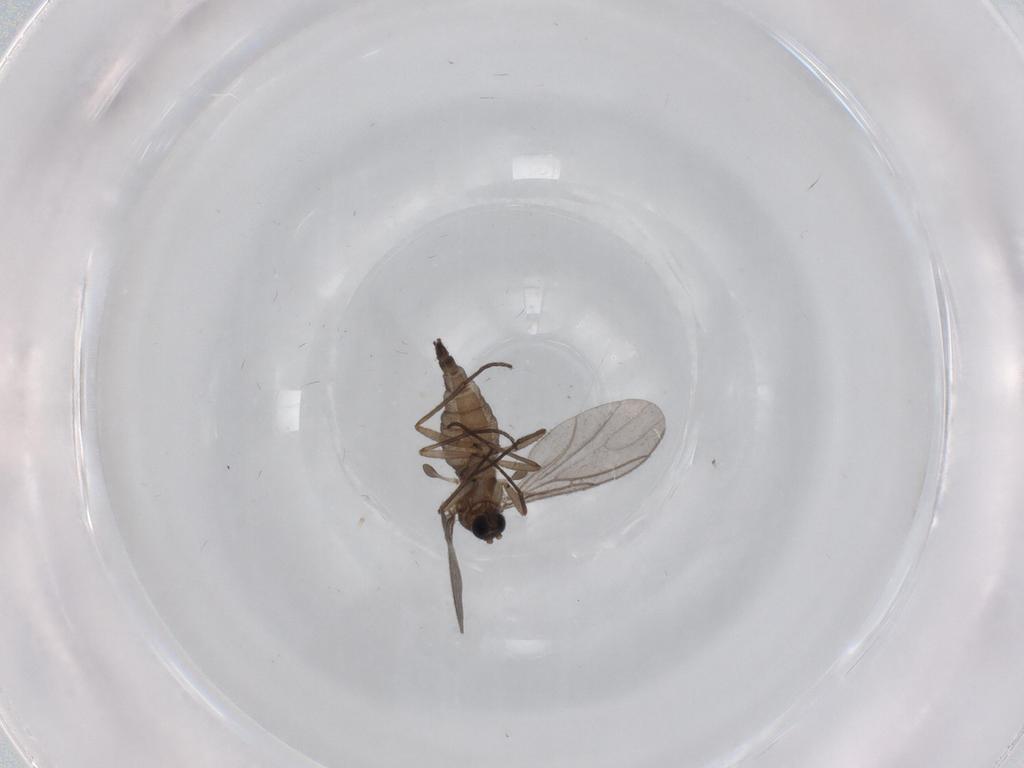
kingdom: Animalia
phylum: Arthropoda
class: Insecta
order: Diptera
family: Sciaridae
